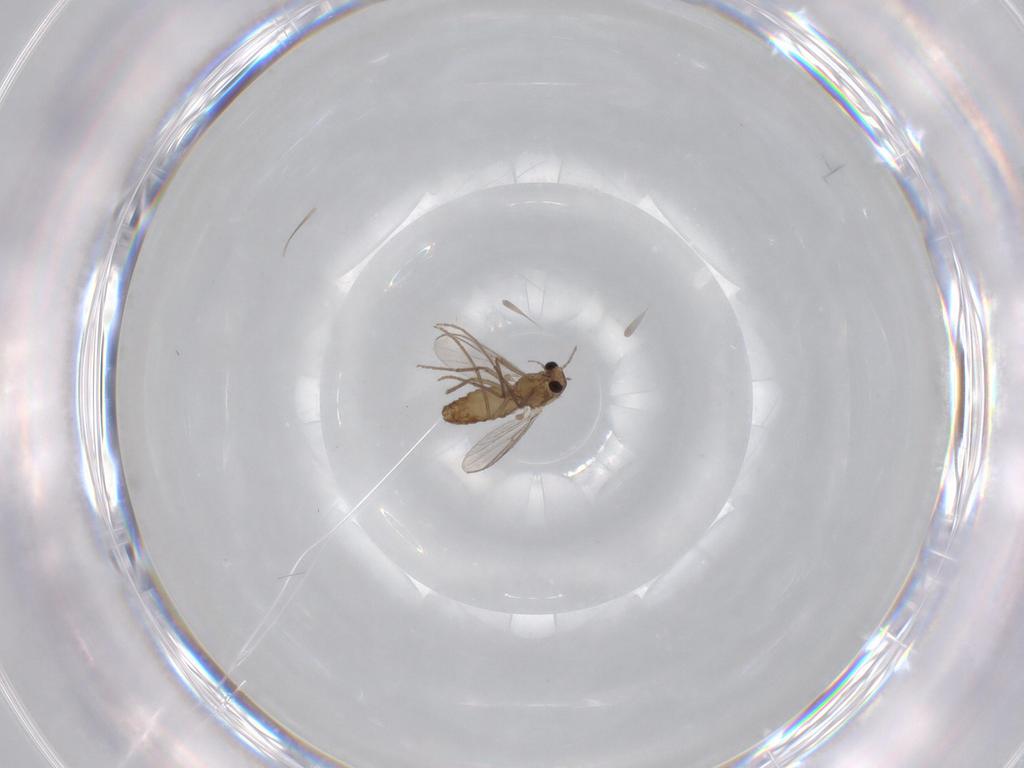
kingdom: Animalia
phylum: Arthropoda
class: Insecta
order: Diptera
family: Chironomidae
